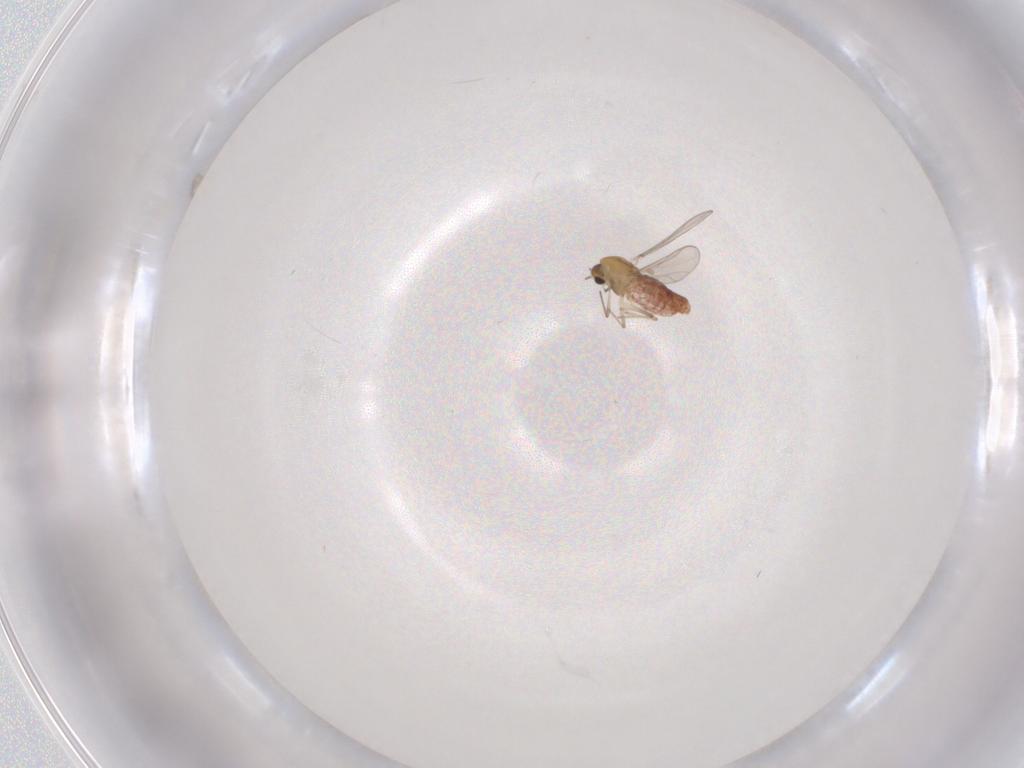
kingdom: Animalia
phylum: Arthropoda
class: Insecta
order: Diptera
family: Chironomidae
